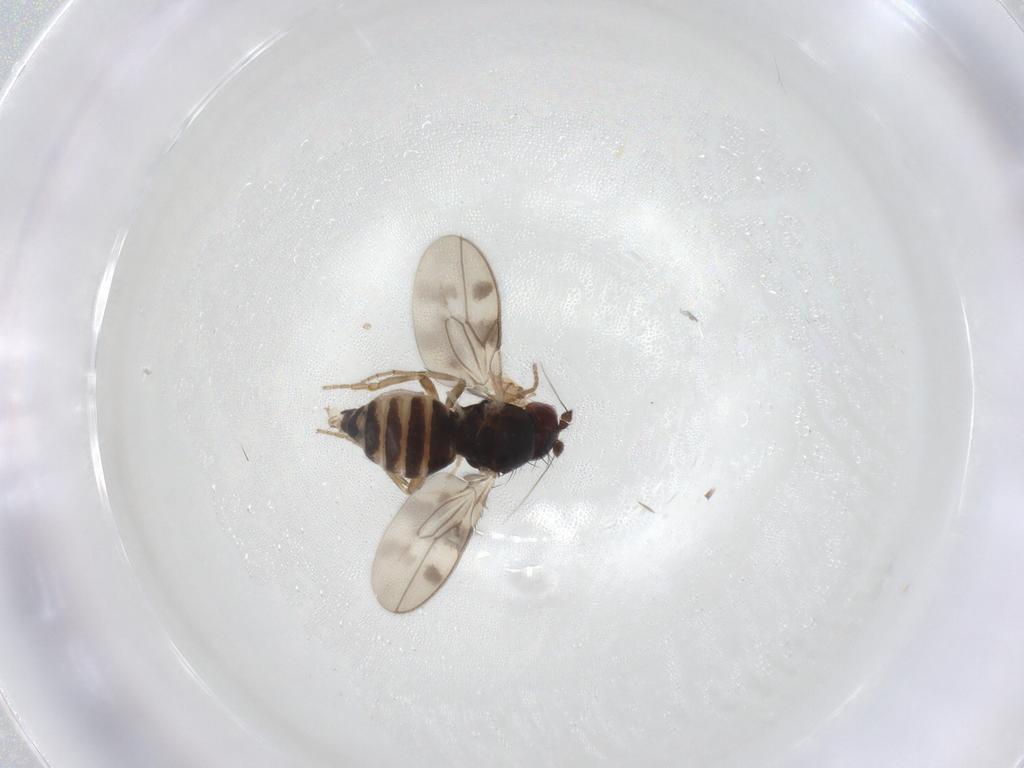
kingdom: Animalia
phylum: Arthropoda
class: Insecta
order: Diptera
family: Sphaeroceridae
